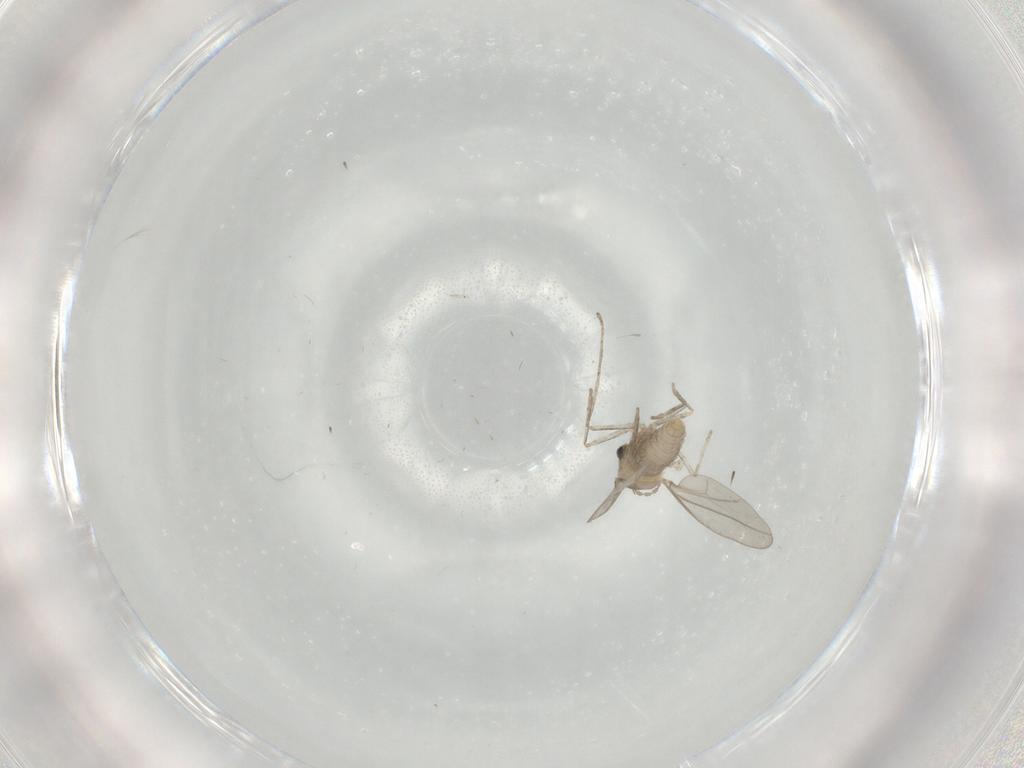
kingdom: Animalia
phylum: Arthropoda
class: Insecta
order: Diptera
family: Cecidomyiidae
